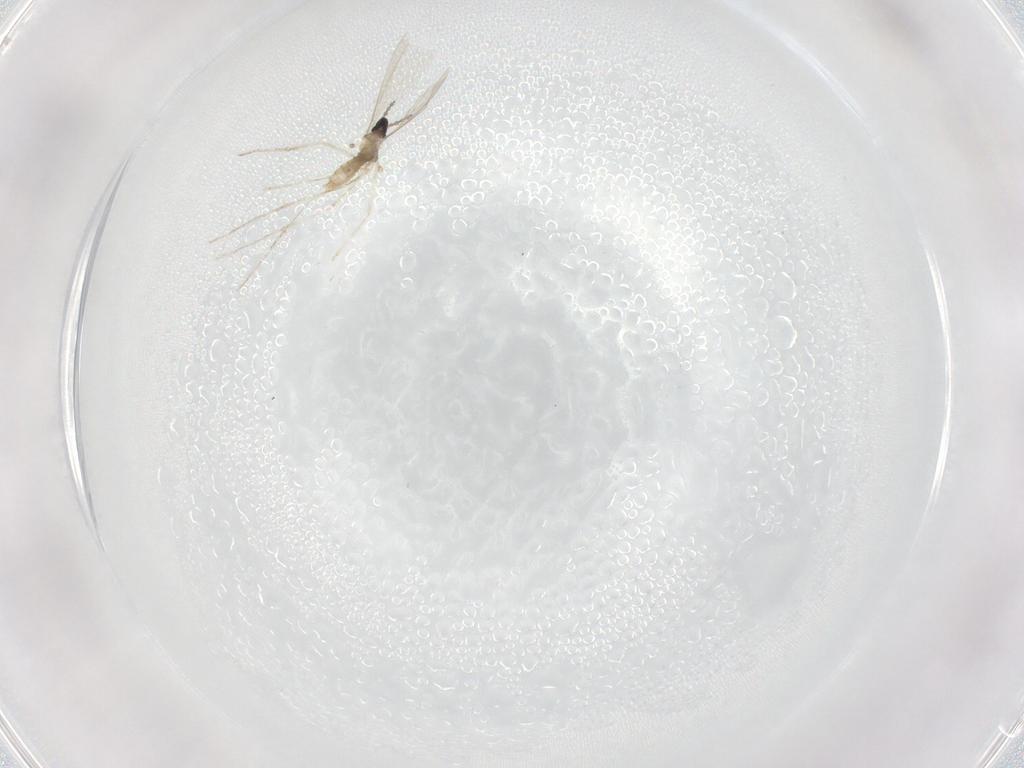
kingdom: Animalia
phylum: Arthropoda
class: Insecta
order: Diptera
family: Cecidomyiidae
